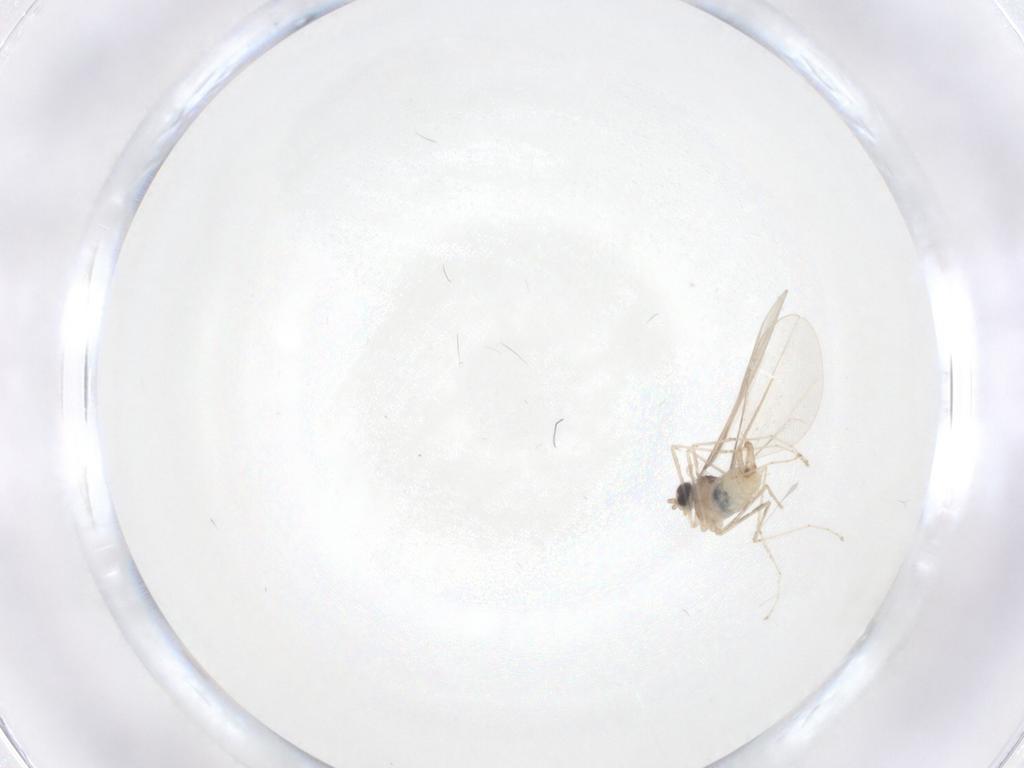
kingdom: Animalia
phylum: Arthropoda
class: Insecta
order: Diptera
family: Cecidomyiidae
